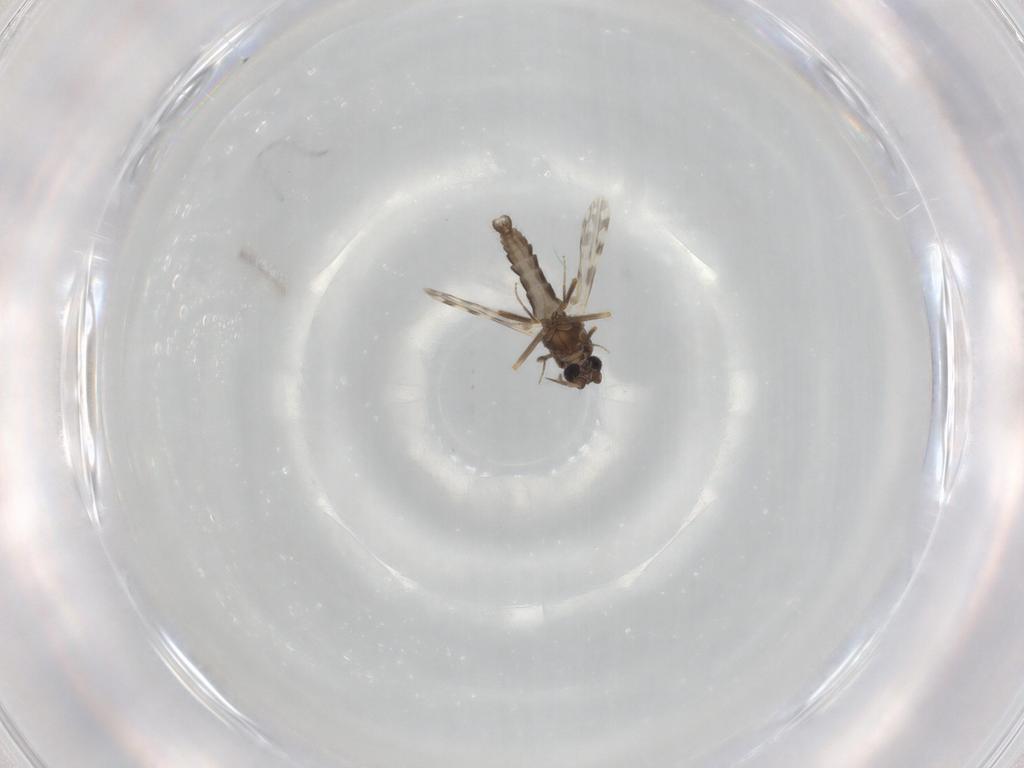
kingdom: Animalia
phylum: Arthropoda
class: Insecta
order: Diptera
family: Ceratopogonidae
